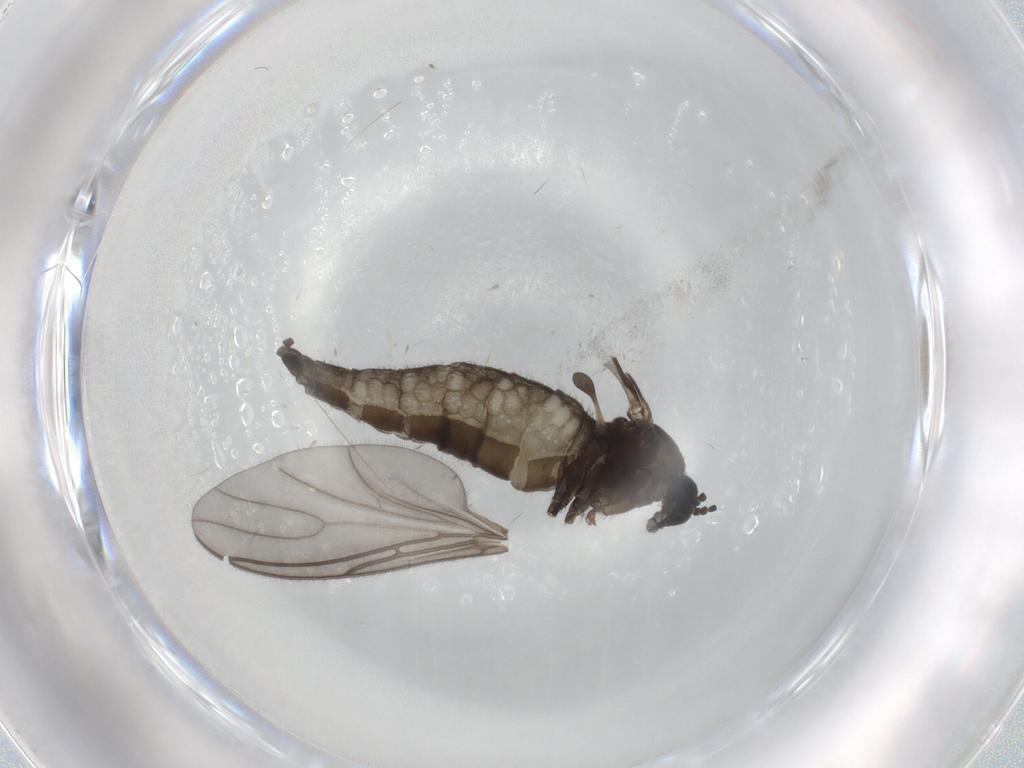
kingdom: Animalia
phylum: Arthropoda
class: Insecta
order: Diptera
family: Sciaridae
